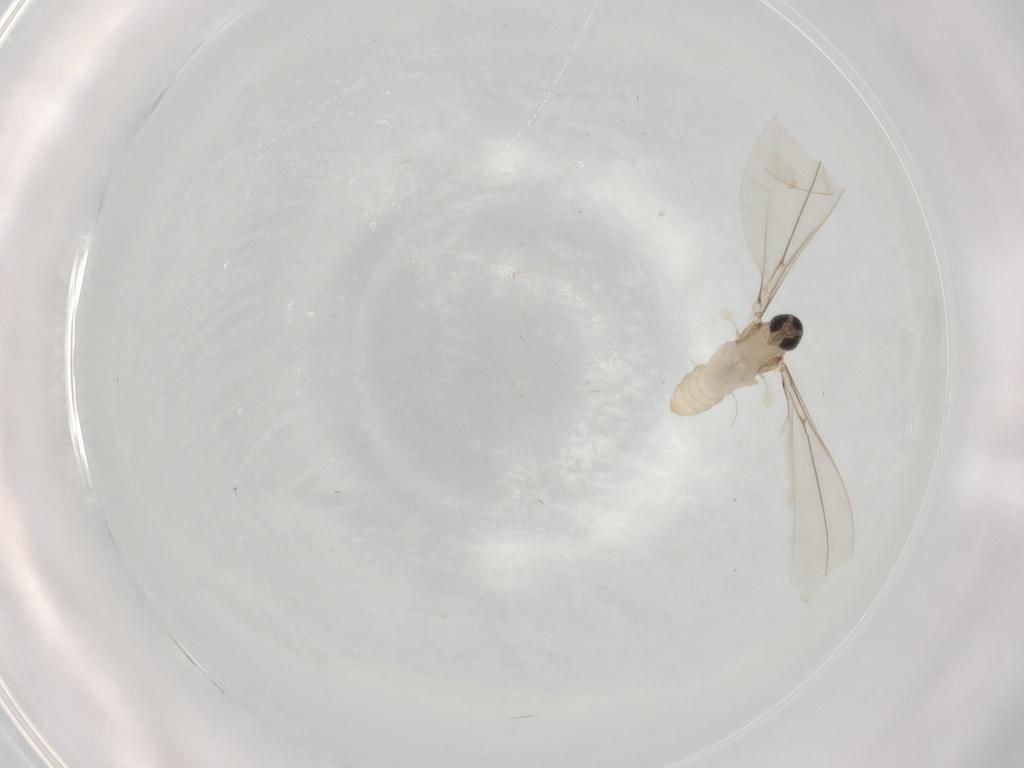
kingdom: Animalia
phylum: Arthropoda
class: Insecta
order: Diptera
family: Cecidomyiidae
